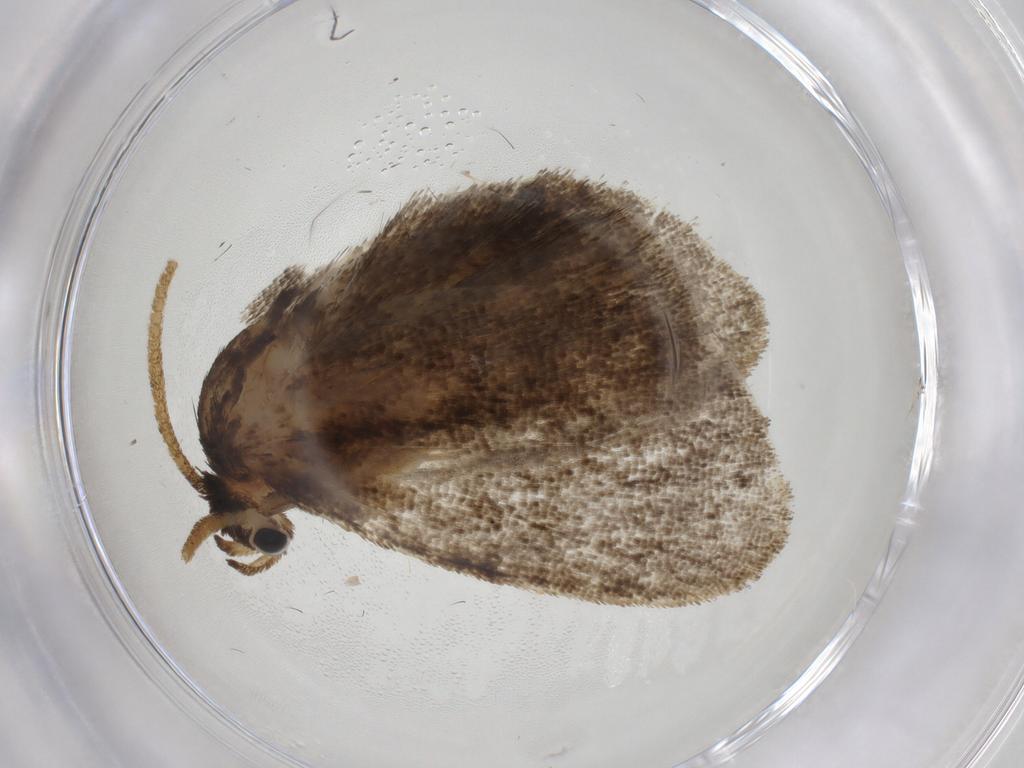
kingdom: Animalia
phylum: Arthropoda
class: Insecta
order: Lepidoptera
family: Limacodidae
